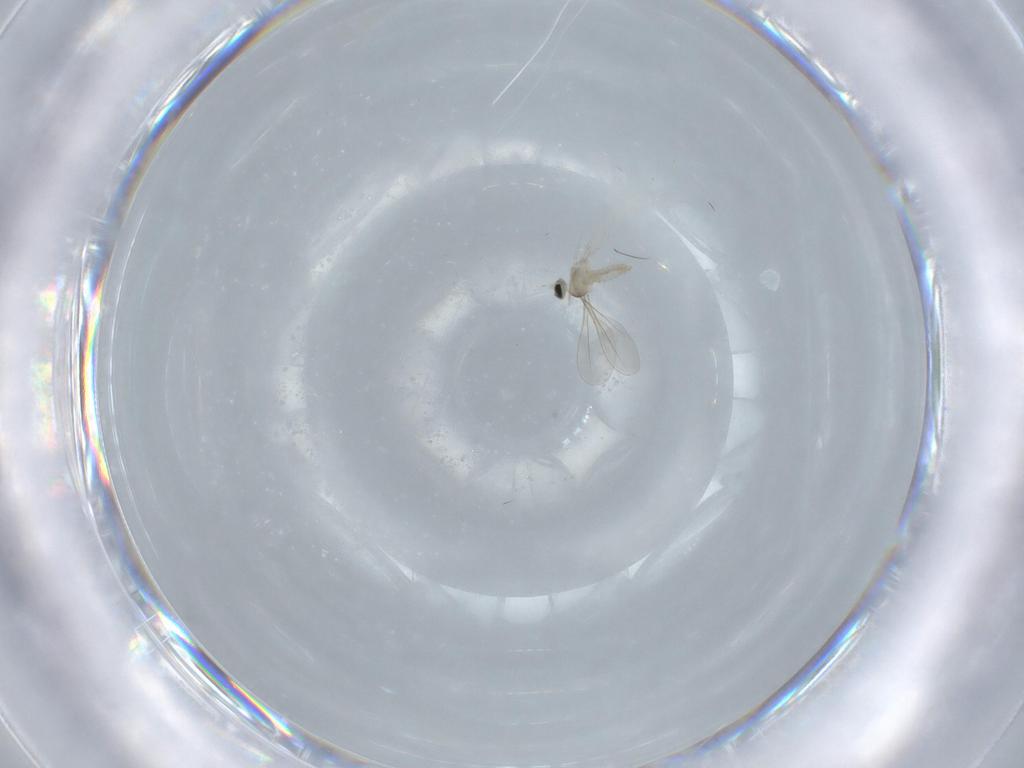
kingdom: Animalia
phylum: Arthropoda
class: Insecta
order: Diptera
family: Cecidomyiidae
